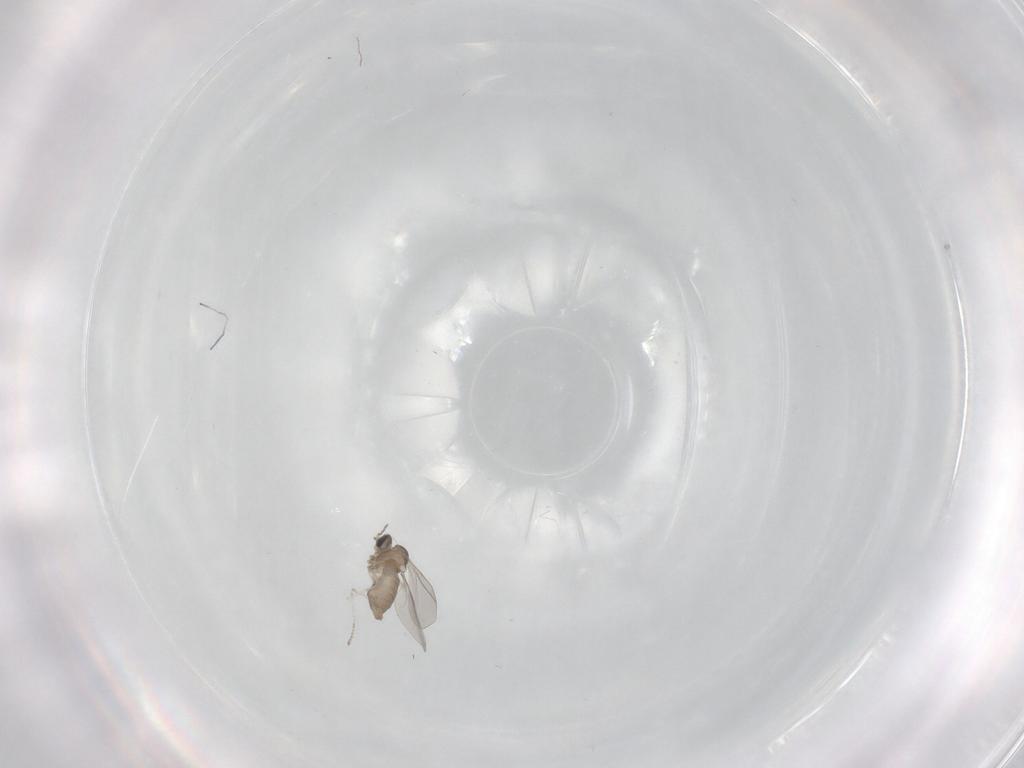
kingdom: Animalia
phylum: Arthropoda
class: Insecta
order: Diptera
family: Cecidomyiidae
